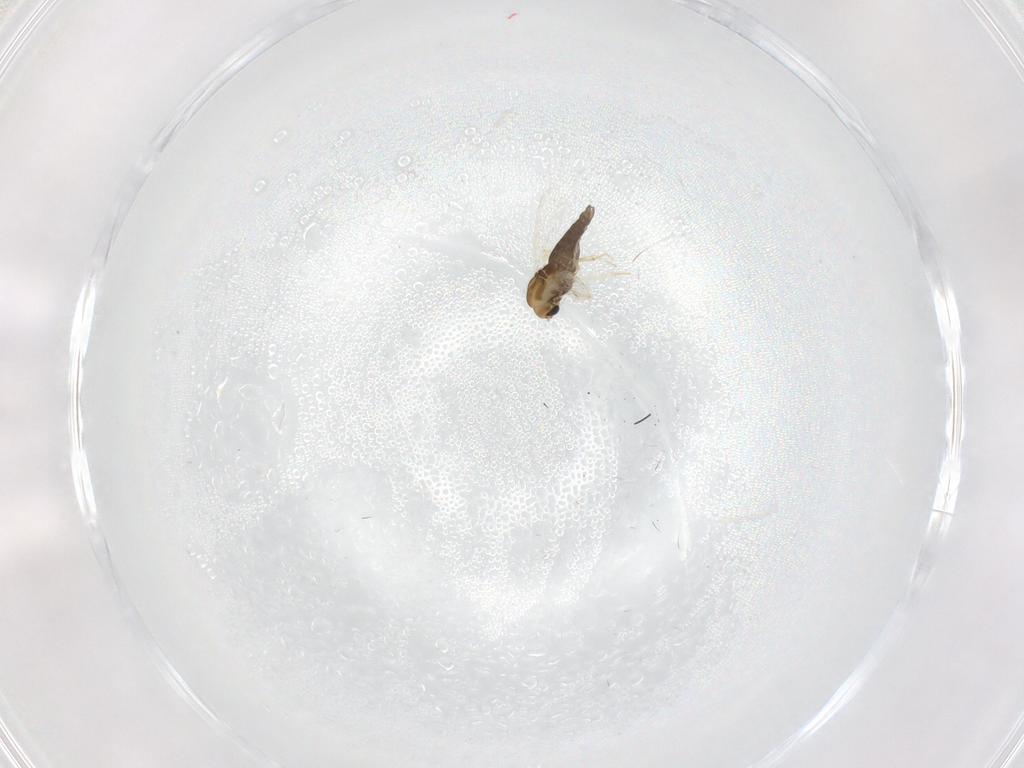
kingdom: Animalia
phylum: Arthropoda
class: Insecta
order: Diptera
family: Chironomidae
